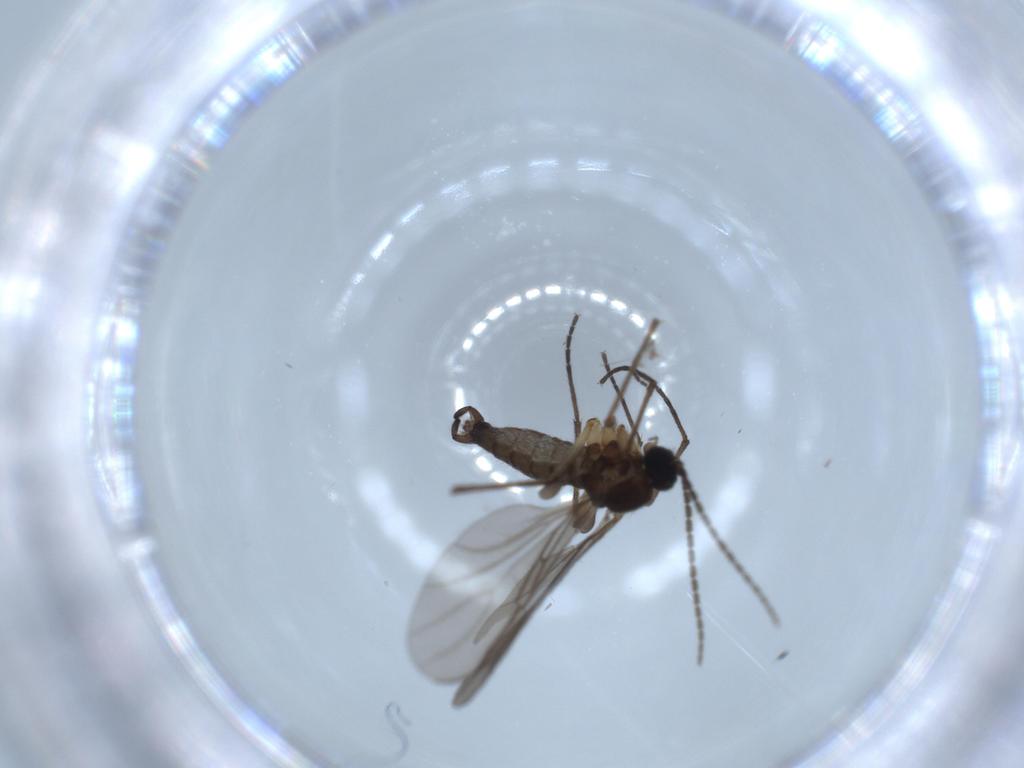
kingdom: Animalia
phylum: Arthropoda
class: Insecta
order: Diptera
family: Sciaridae
